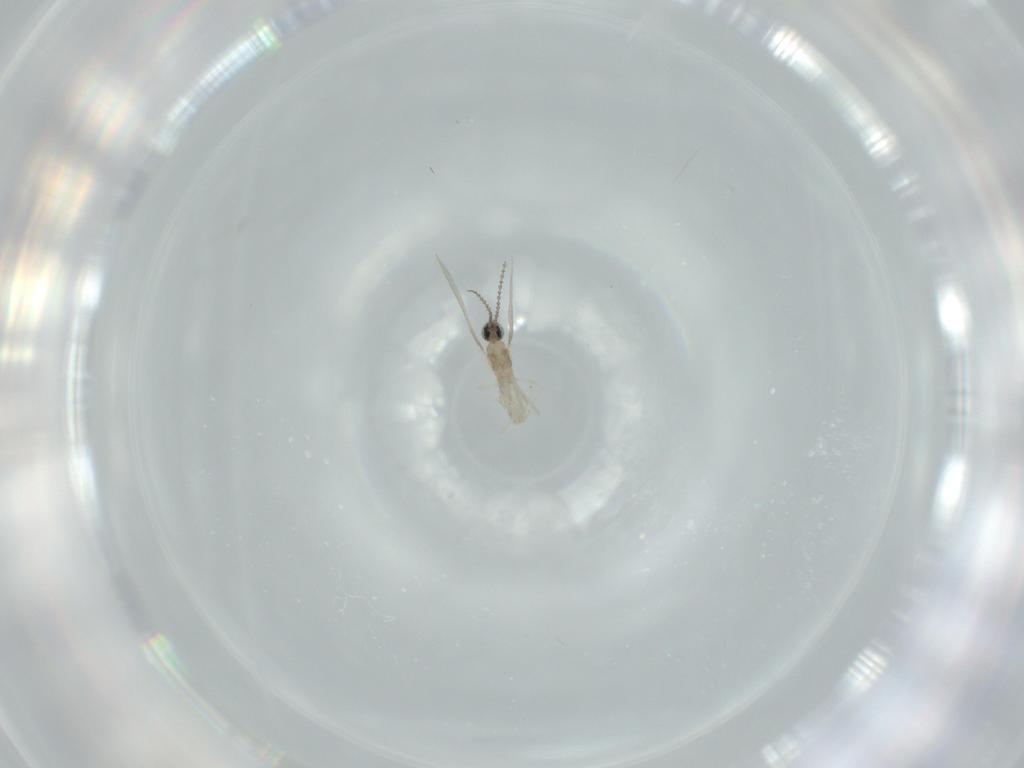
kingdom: Animalia
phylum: Arthropoda
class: Insecta
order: Diptera
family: Cecidomyiidae
